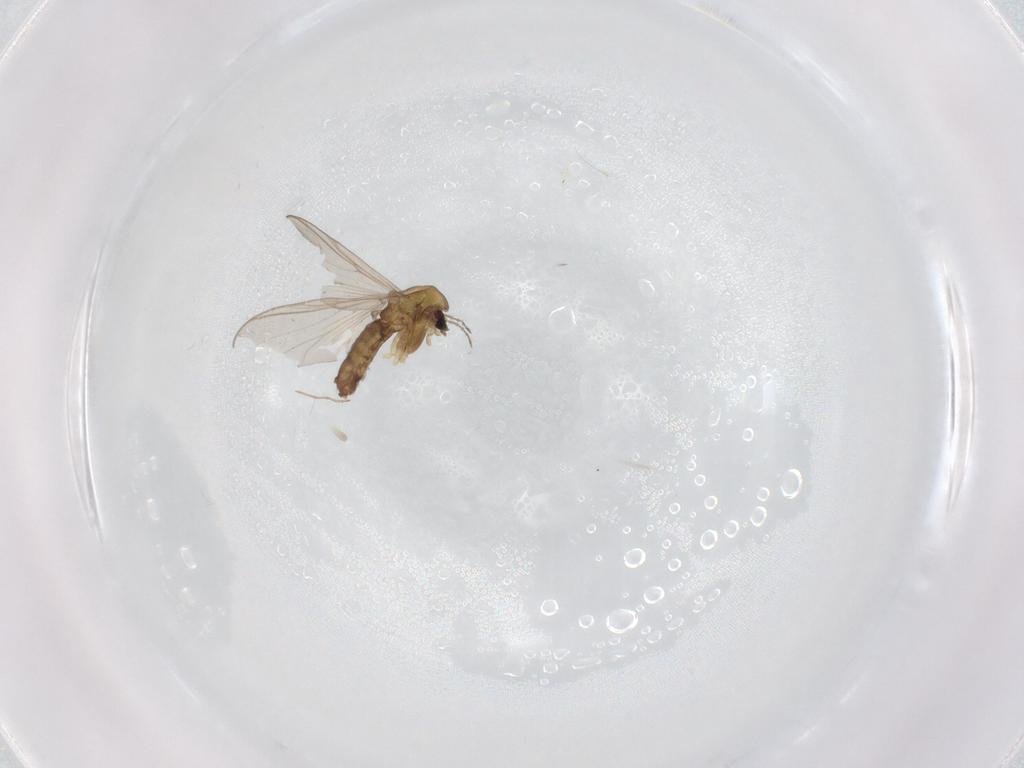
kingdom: Animalia
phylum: Arthropoda
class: Insecta
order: Diptera
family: Chironomidae
